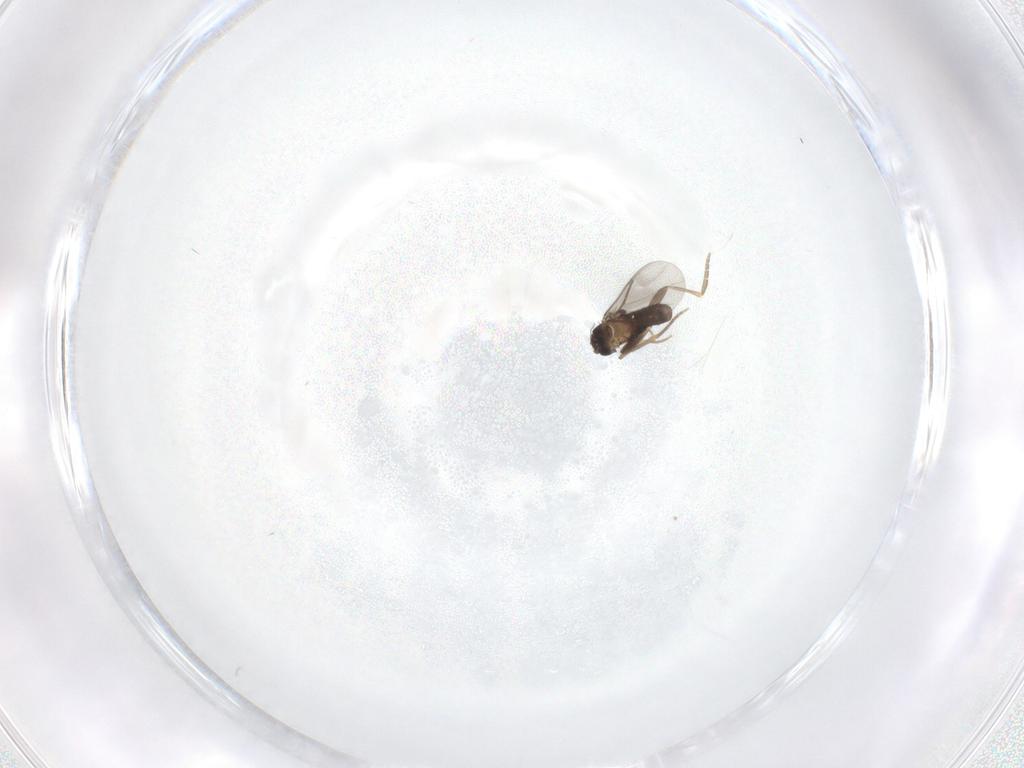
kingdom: Animalia
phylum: Arthropoda
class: Insecta
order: Diptera
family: Cecidomyiidae
